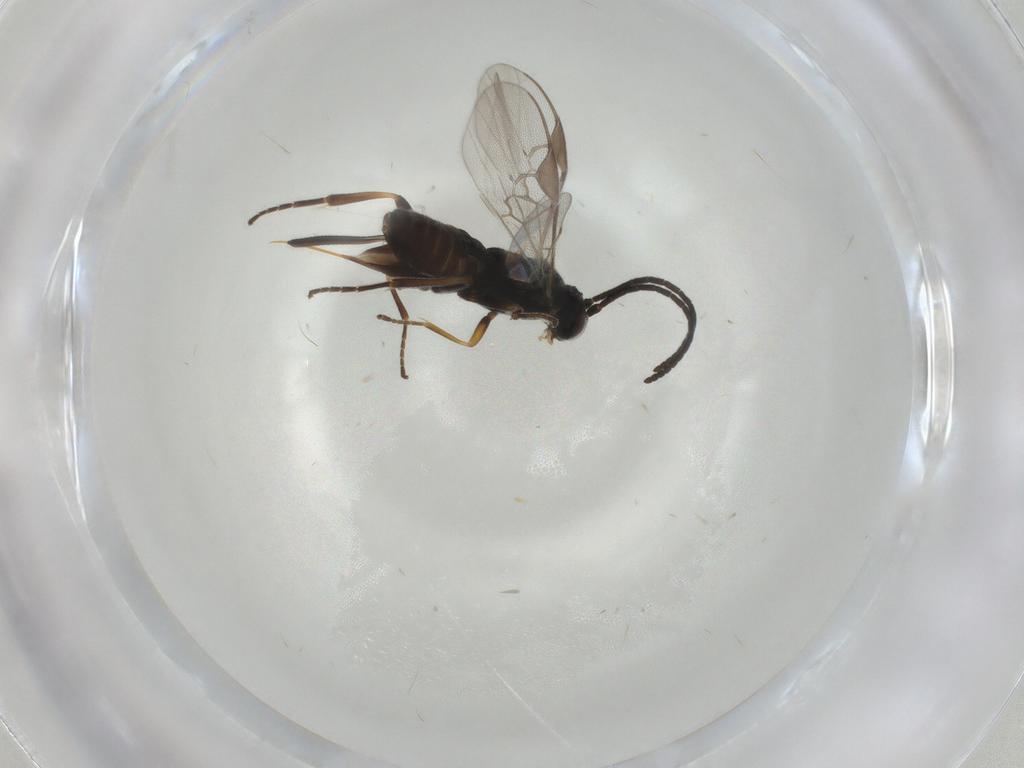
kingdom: Animalia
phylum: Arthropoda
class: Insecta
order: Hymenoptera
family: Braconidae
